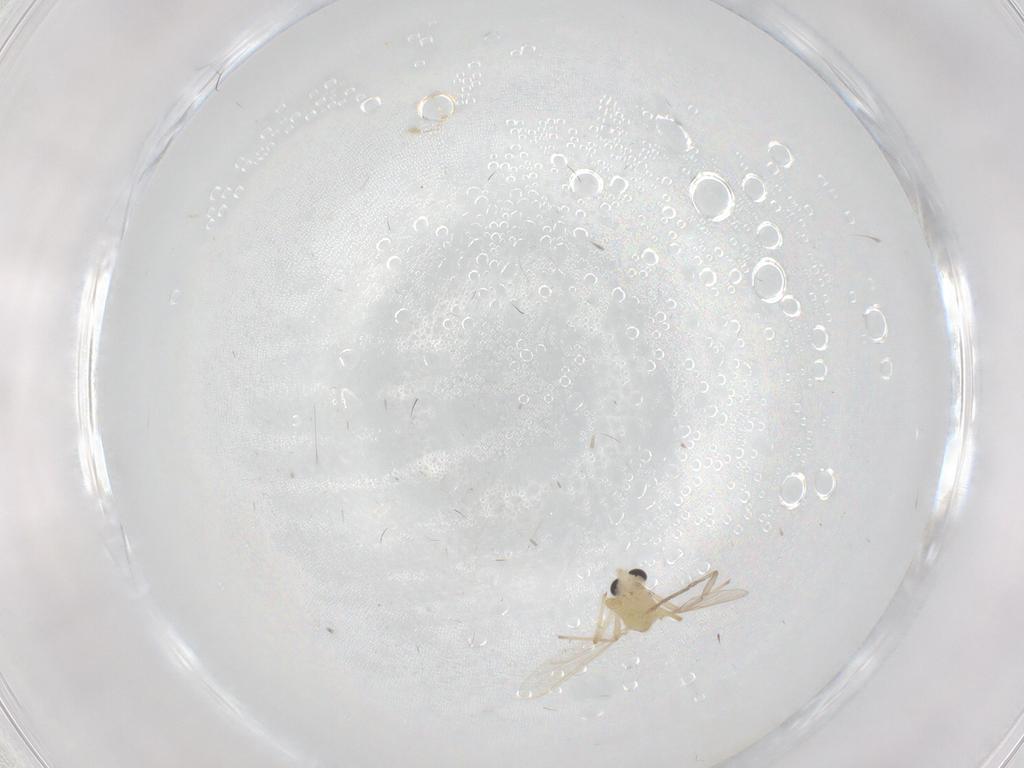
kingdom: Animalia
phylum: Arthropoda
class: Insecta
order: Diptera
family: Chironomidae
